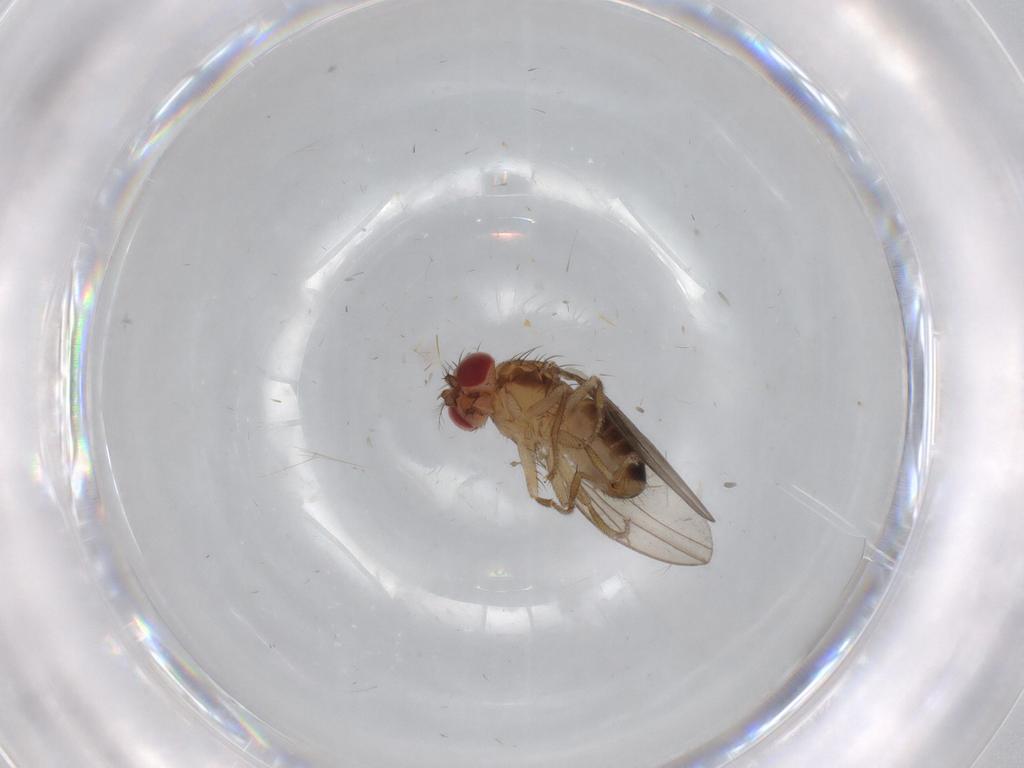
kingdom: Animalia
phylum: Arthropoda
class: Insecta
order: Diptera
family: Drosophilidae
